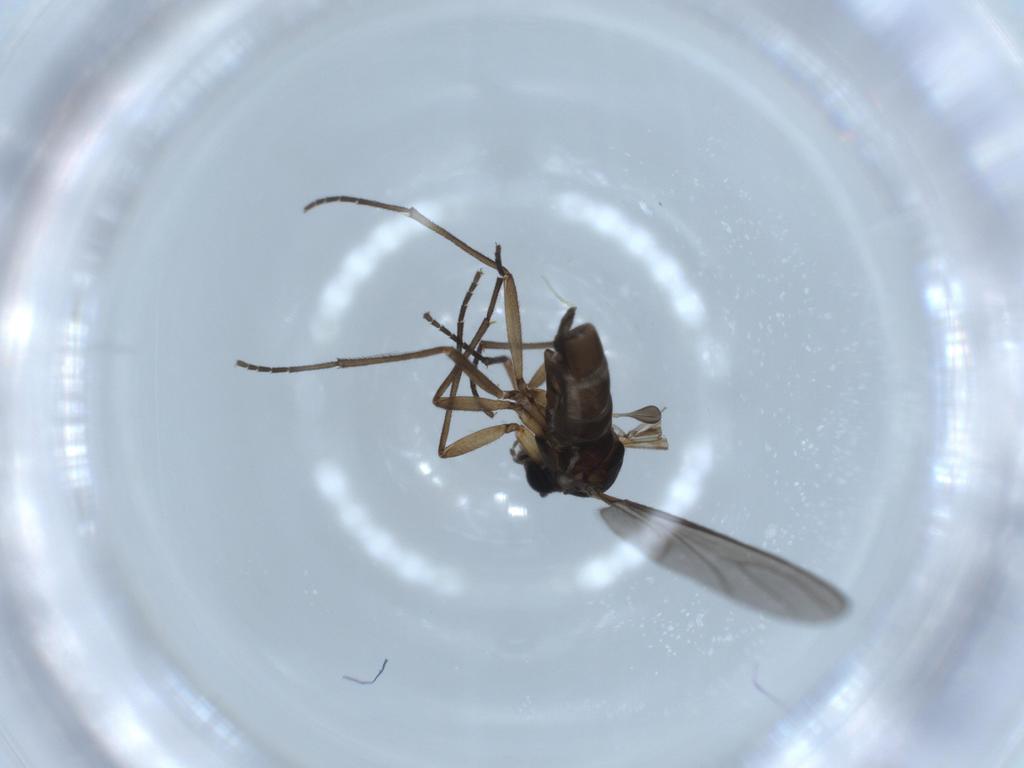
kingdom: Animalia
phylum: Arthropoda
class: Insecta
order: Diptera
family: Sciaridae
